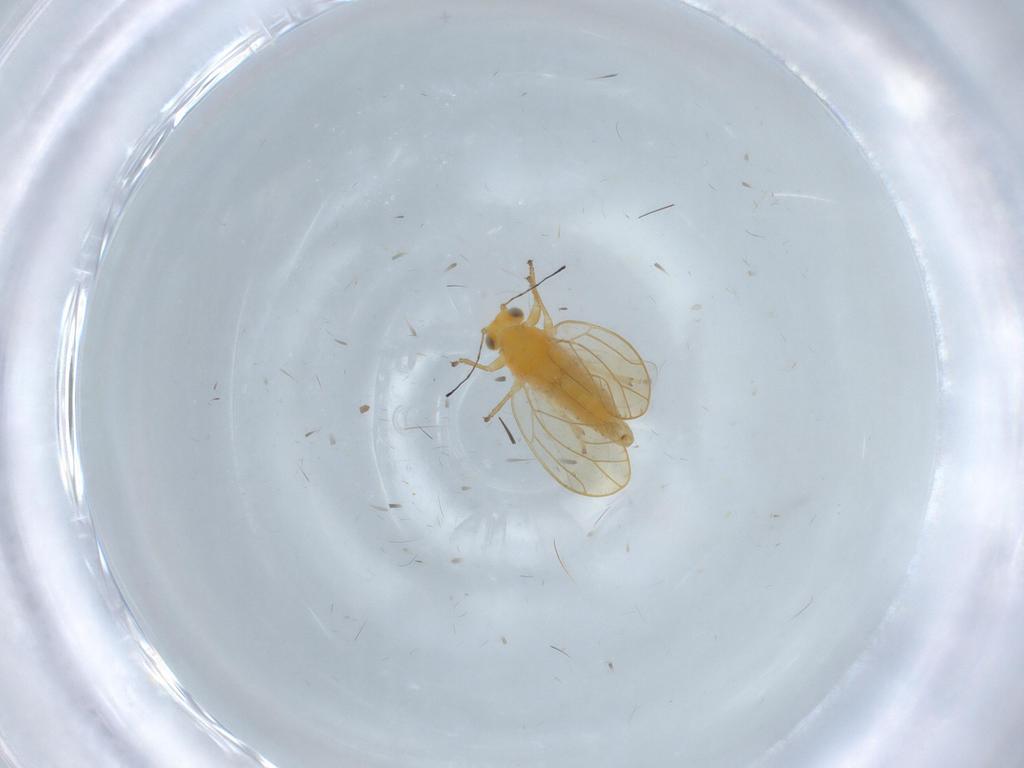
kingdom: Animalia
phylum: Arthropoda
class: Insecta
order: Hemiptera
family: Triozidae
